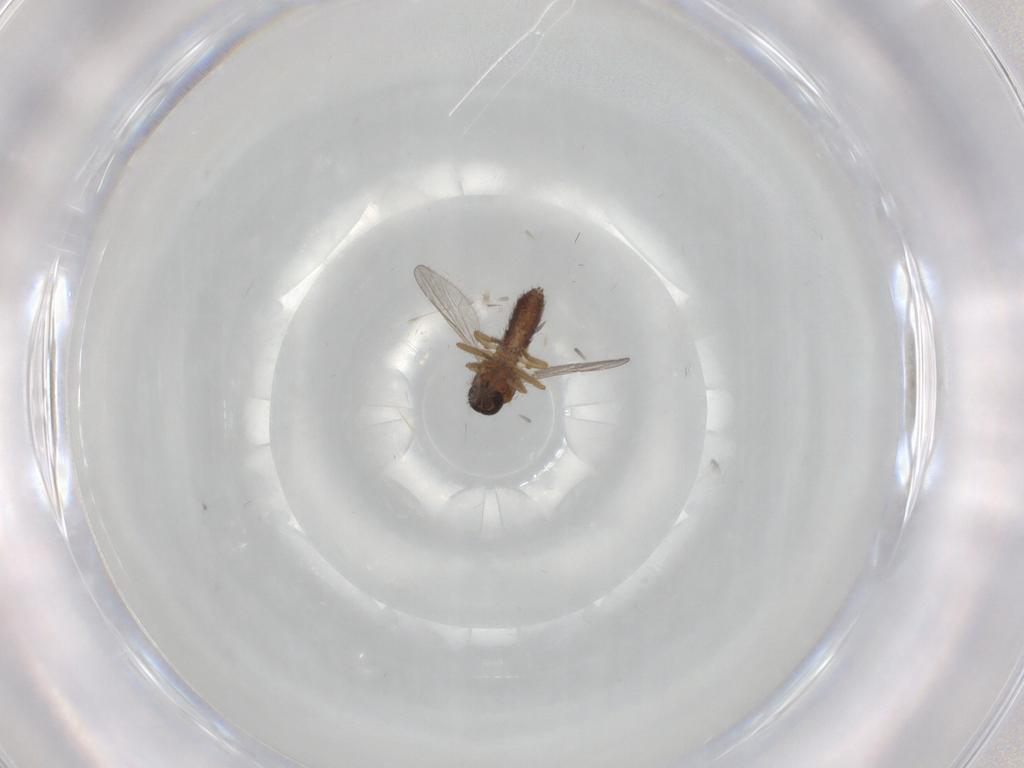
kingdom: Animalia
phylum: Arthropoda
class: Insecta
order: Diptera
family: Ceratopogonidae
